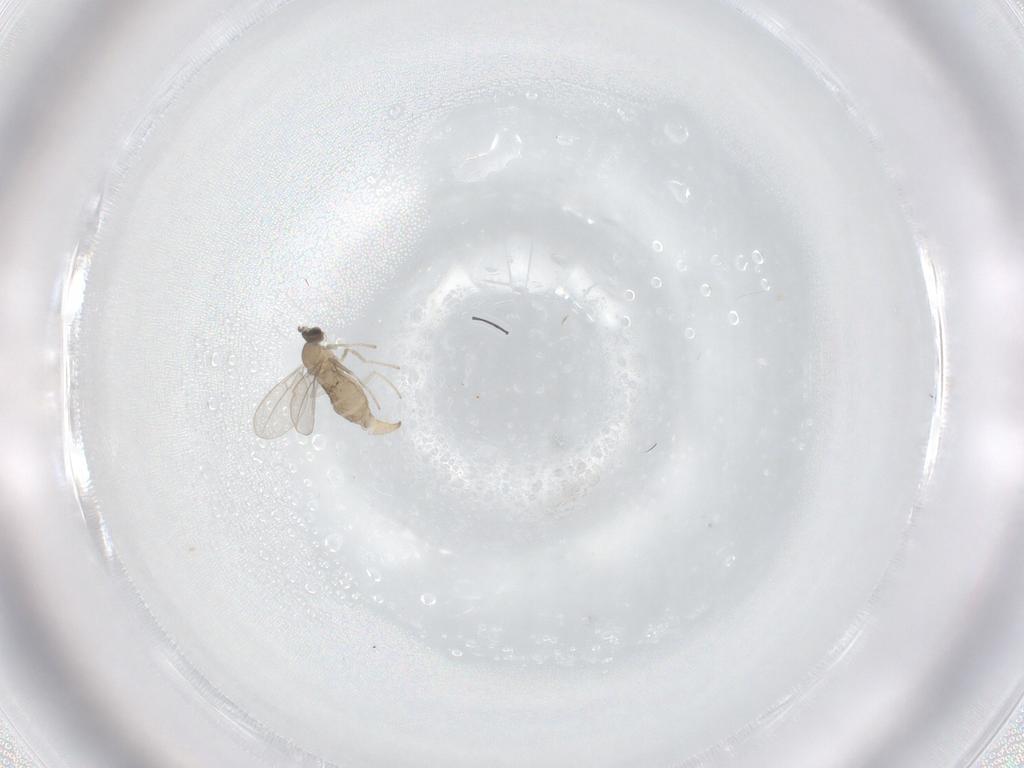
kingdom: Animalia
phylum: Arthropoda
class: Insecta
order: Diptera
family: Cecidomyiidae
